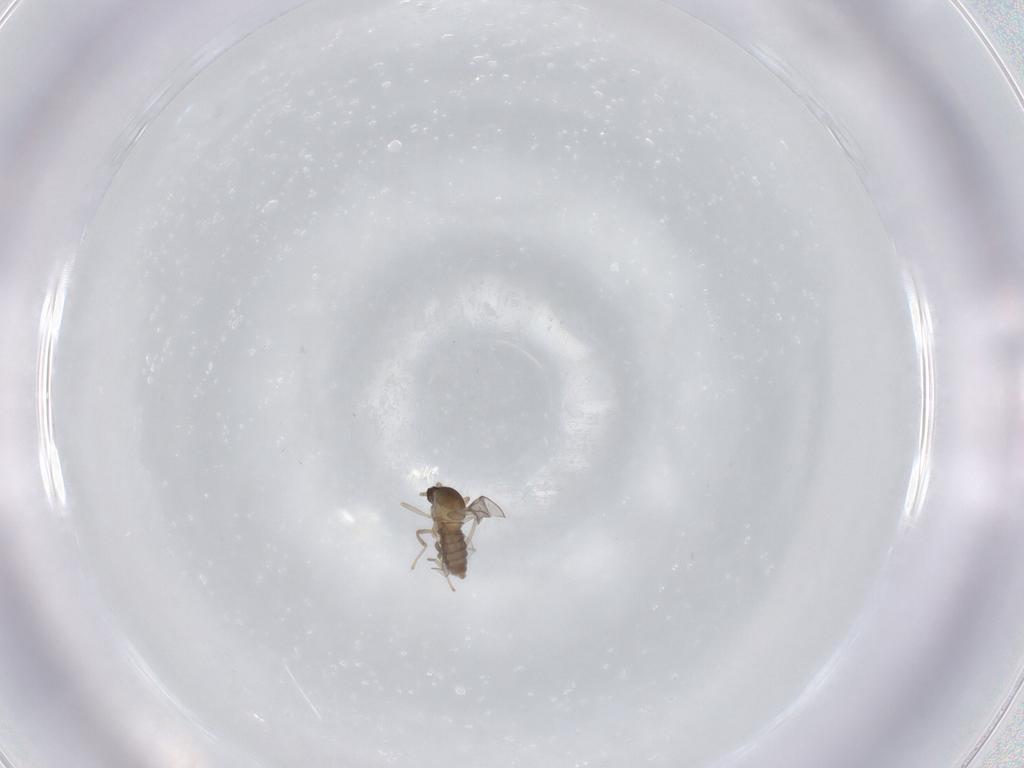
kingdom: Animalia
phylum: Arthropoda
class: Insecta
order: Diptera
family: Cecidomyiidae
